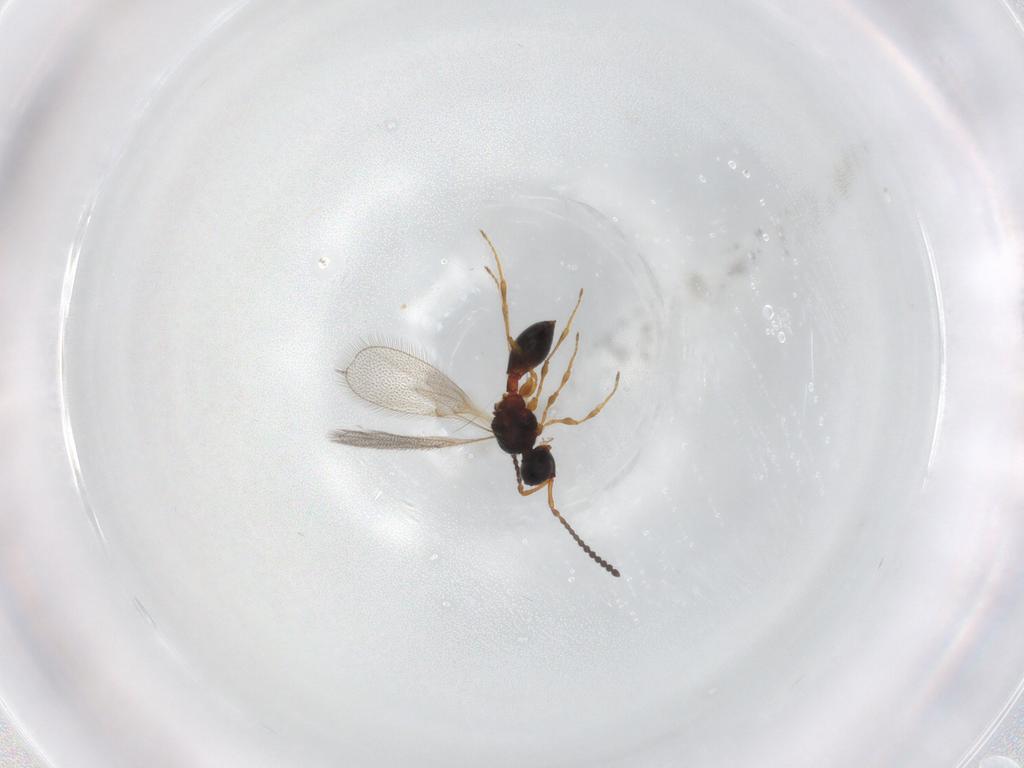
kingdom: Animalia
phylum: Arthropoda
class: Insecta
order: Hymenoptera
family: Diapriidae
